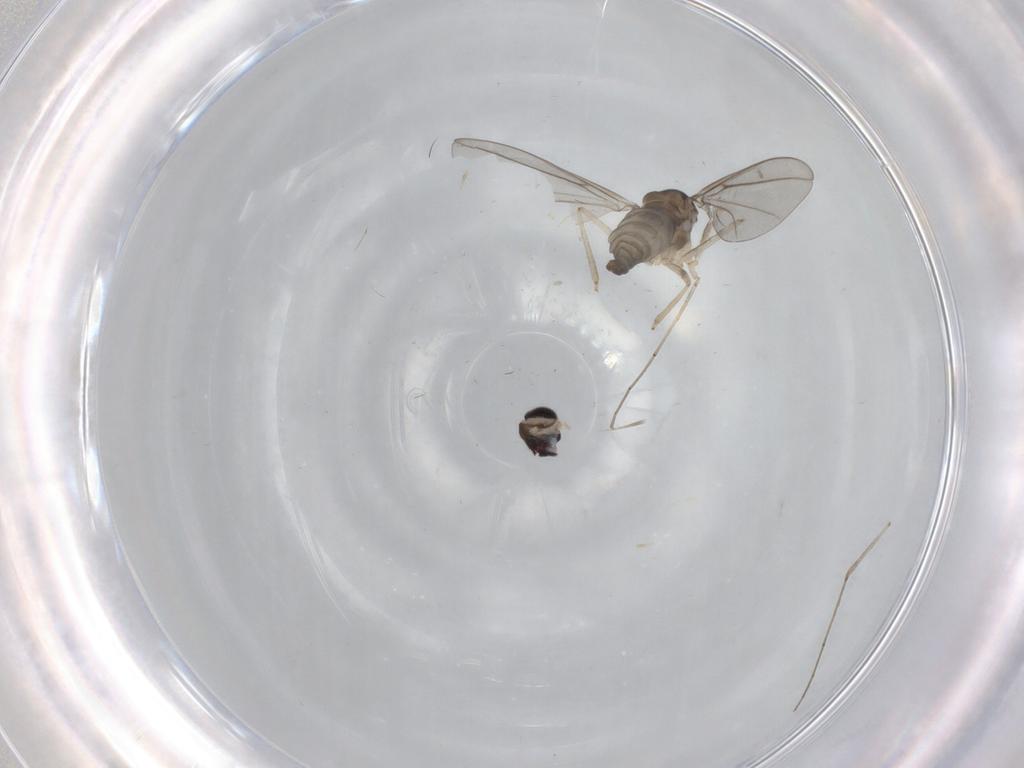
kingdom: Animalia
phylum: Arthropoda
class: Insecta
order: Diptera
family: Cecidomyiidae
